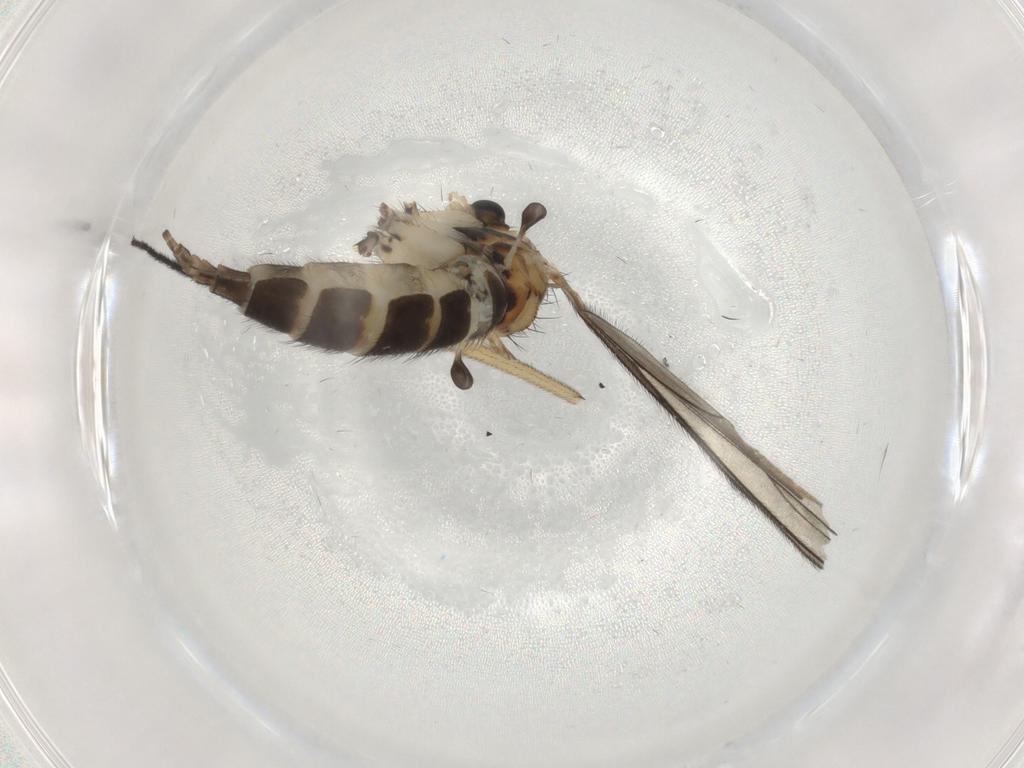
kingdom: Animalia
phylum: Arthropoda
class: Insecta
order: Diptera
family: Sciaridae
